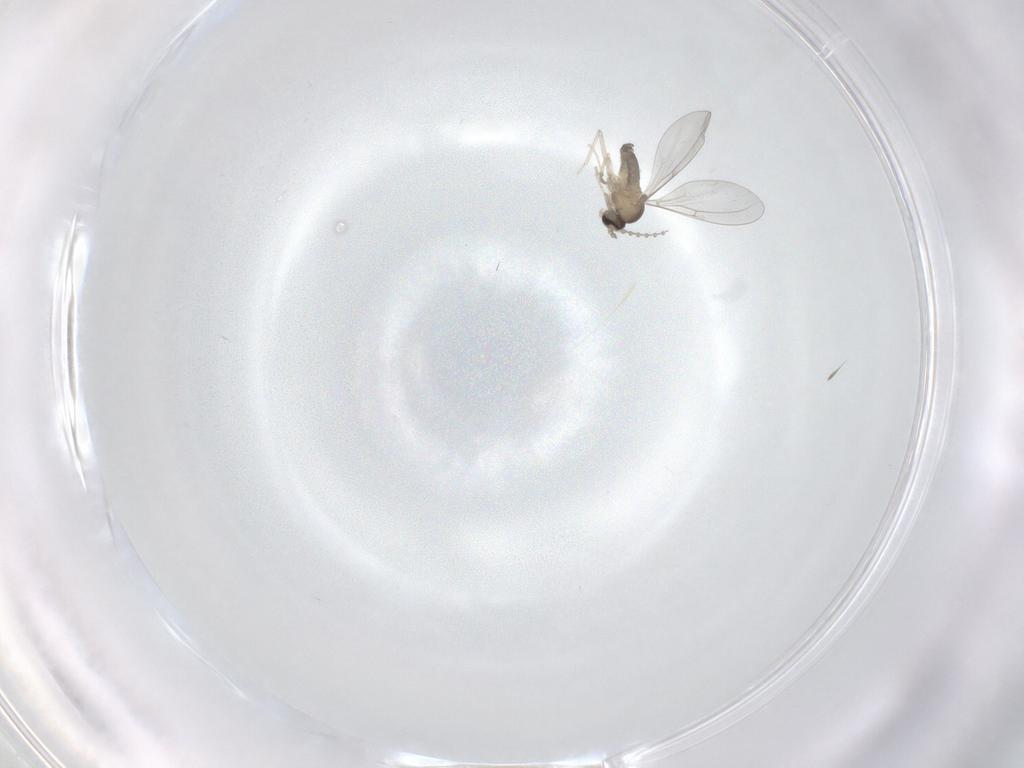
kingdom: Animalia
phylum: Arthropoda
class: Insecta
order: Diptera
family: Cecidomyiidae
